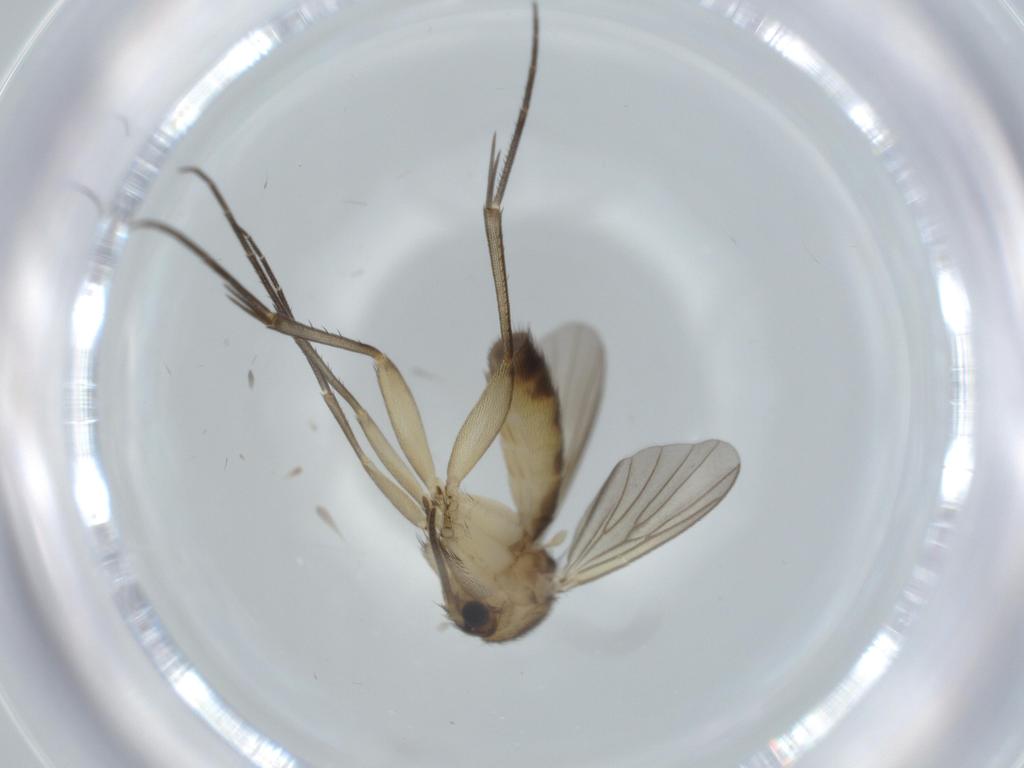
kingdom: Animalia
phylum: Arthropoda
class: Insecta
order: Diptera
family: Mycetophilidae
